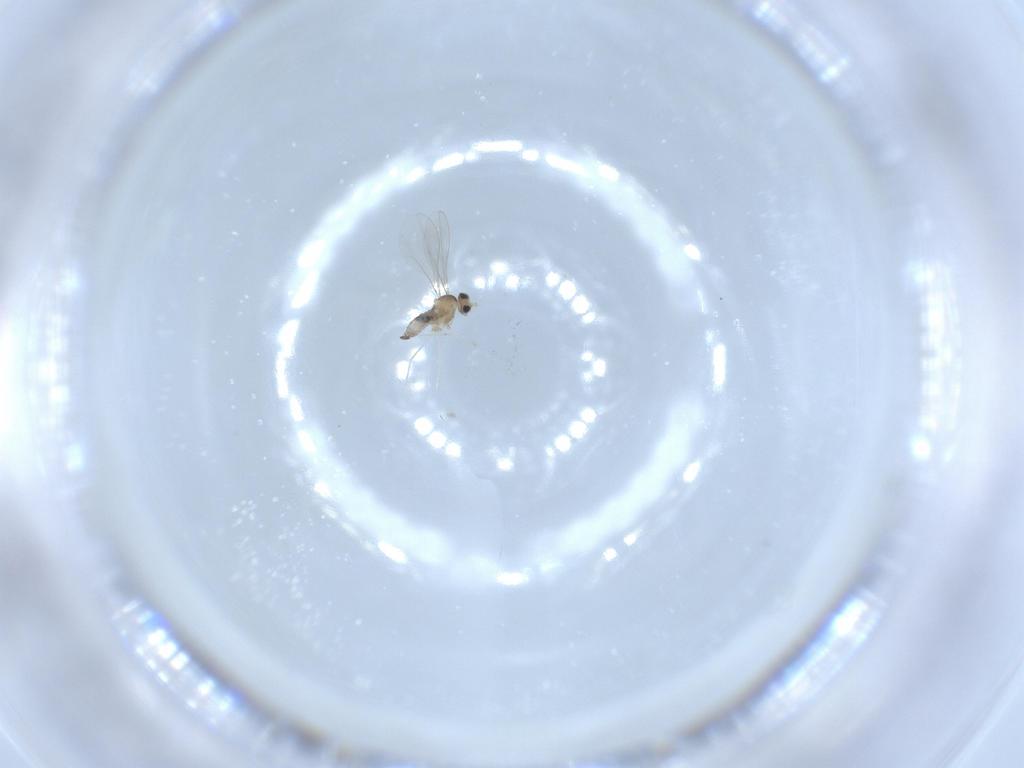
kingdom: Animalia
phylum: Arthropoda
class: Insecta
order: Diptera
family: Cecidomyiidae
